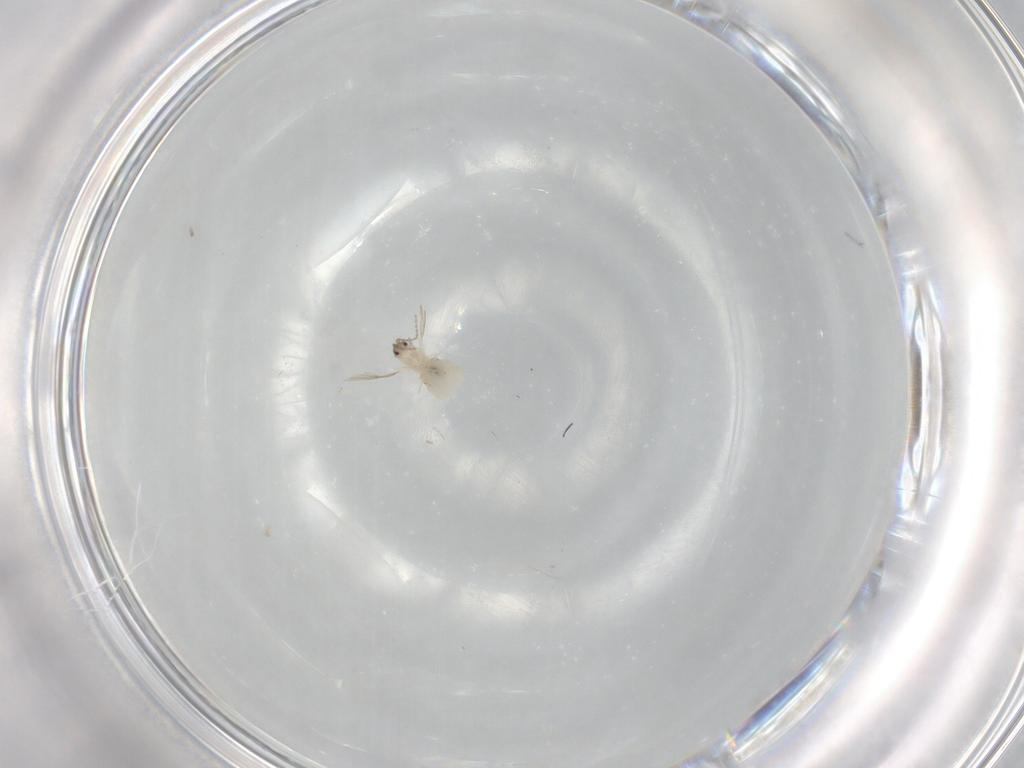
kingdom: Animalia
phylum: Arthropoda
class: Insecta
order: Diptera
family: Cecidomyiidae
